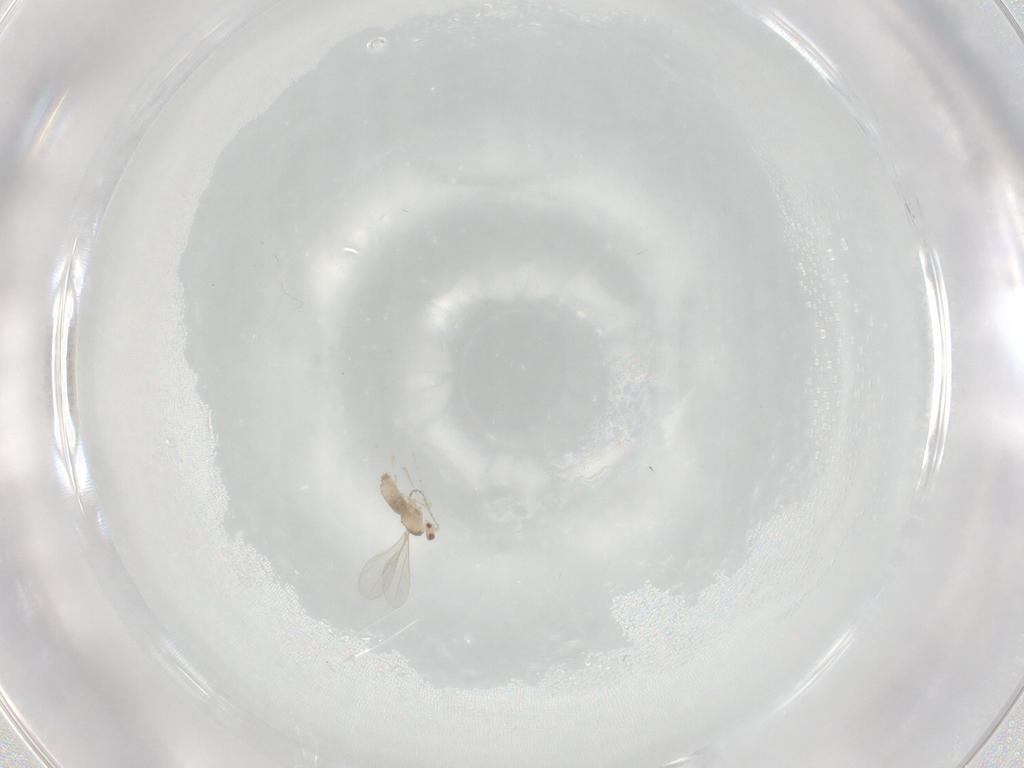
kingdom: Animalia
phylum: Arthropoda
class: Insecta
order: Diptera
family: Cecidomyiidae
